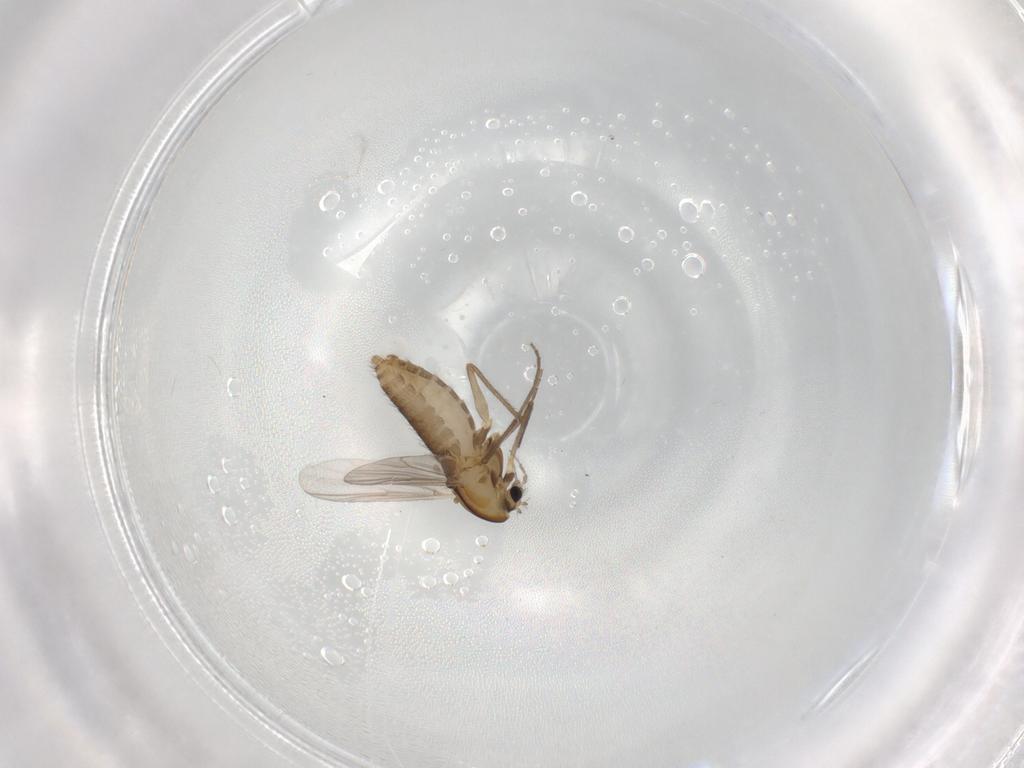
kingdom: Animalia
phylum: Arthropoda
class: Insecta
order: Diptera
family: Chironomidae
